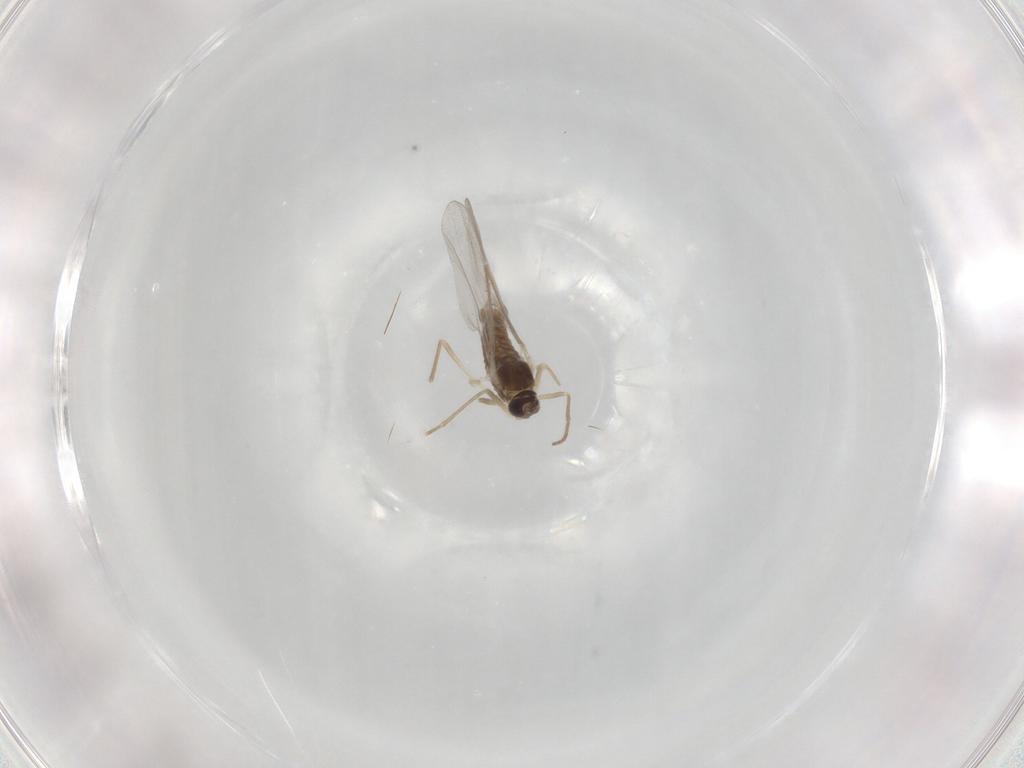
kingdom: Animalia
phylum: Arthropoda
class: Insecta
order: Diptera
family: Cecidomyiidae
